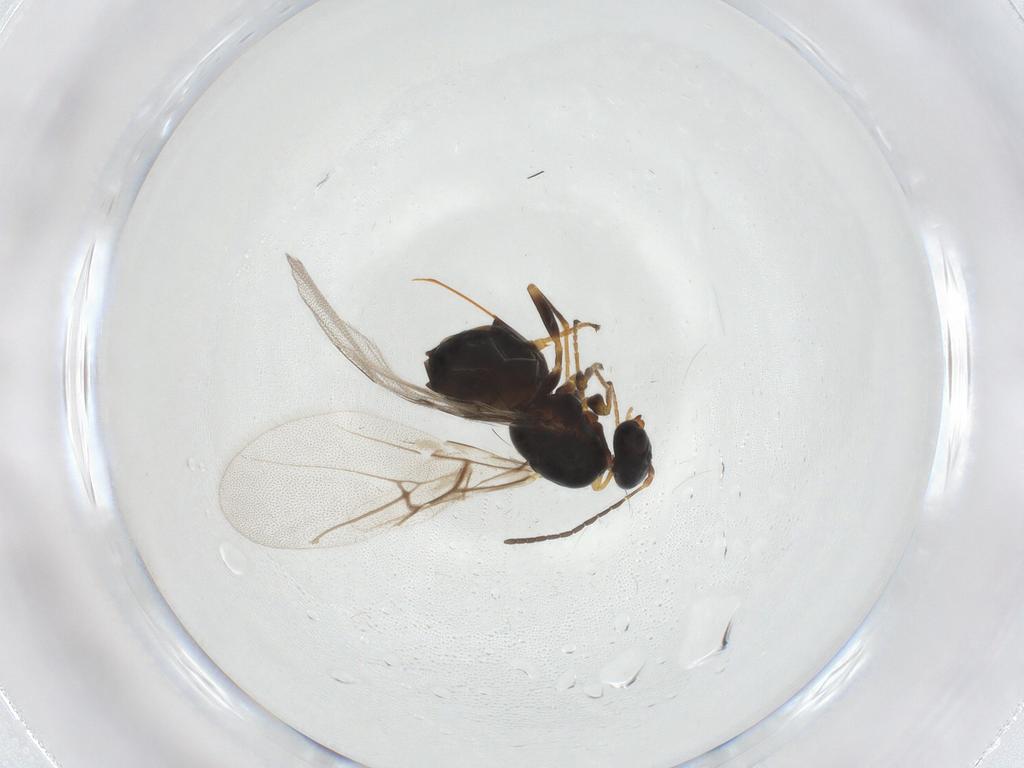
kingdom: Animalia
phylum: Arthropoda
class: Insecta
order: Hymenoptera
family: Cynipidae
